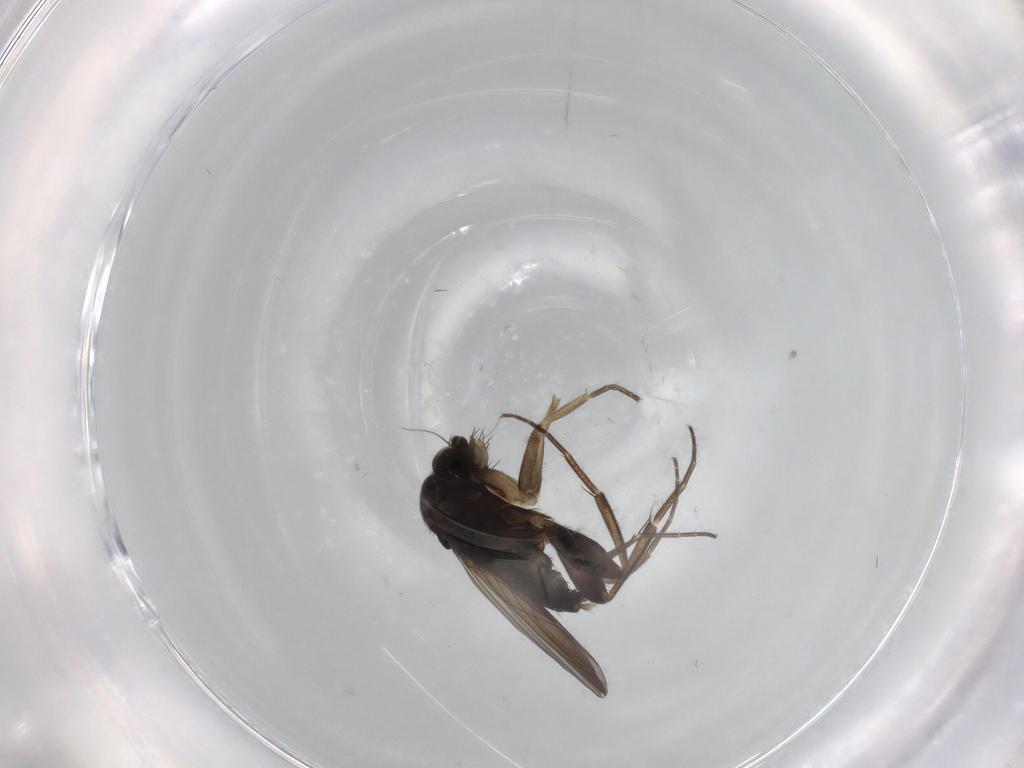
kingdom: Animalia
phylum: Arthropoda
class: Insecta
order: Diptera
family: Phoridae
